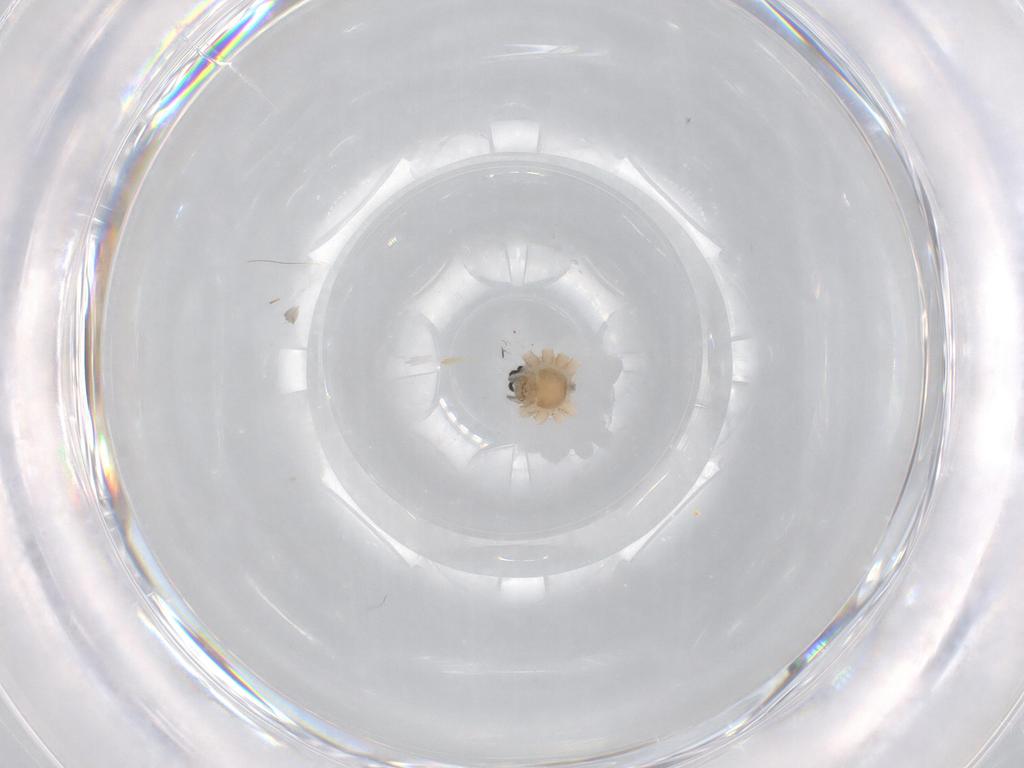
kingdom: Animalia
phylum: Arthropoda
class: Arachnida
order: Araneae
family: Pholcidae
